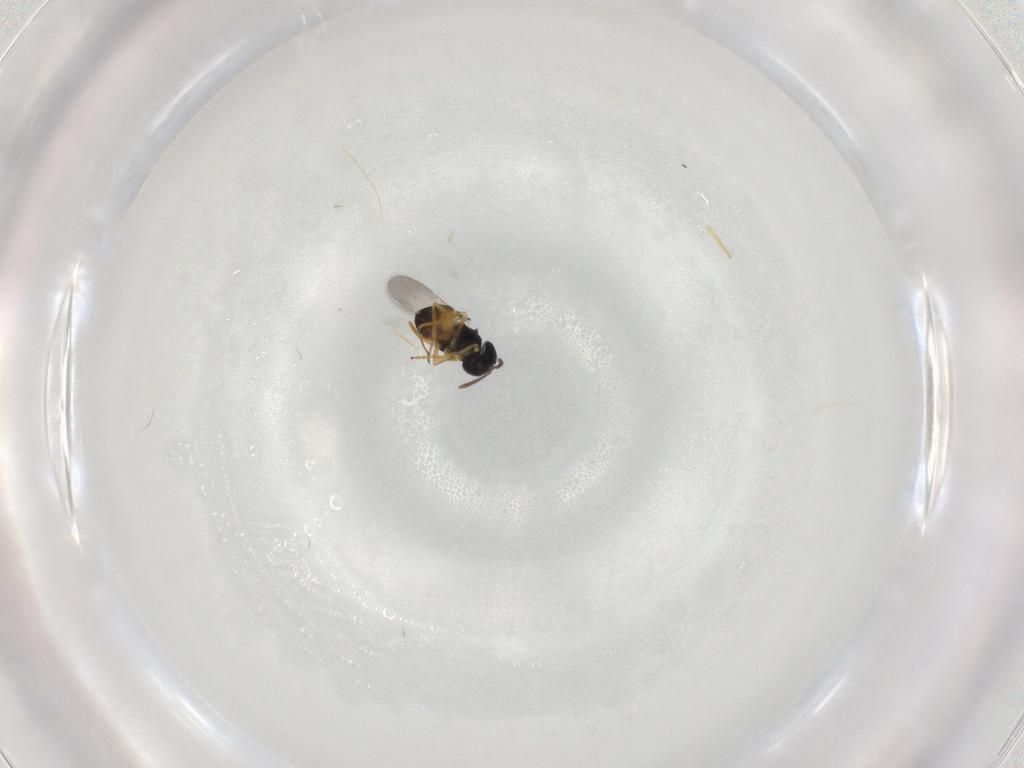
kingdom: Animalia
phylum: Arthropoda
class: Insecta
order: Hymenoptera
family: Encyrtidae
